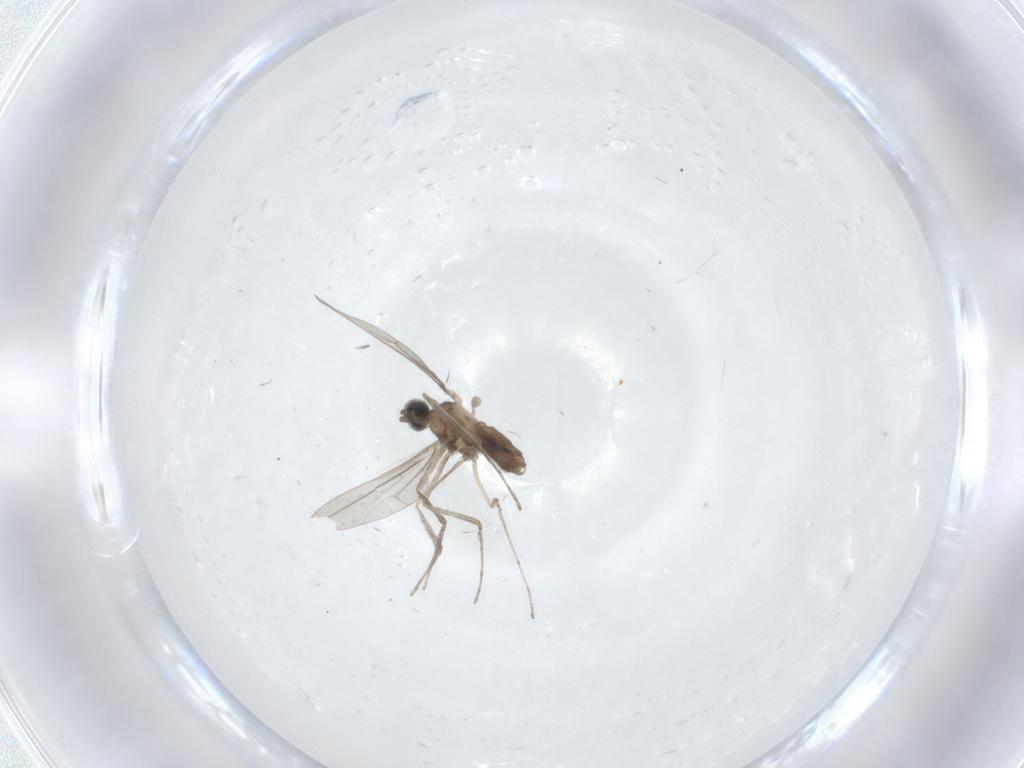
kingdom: Animalia
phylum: Arthropoda
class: Insecta
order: Diptera
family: Cecidomyiidae
